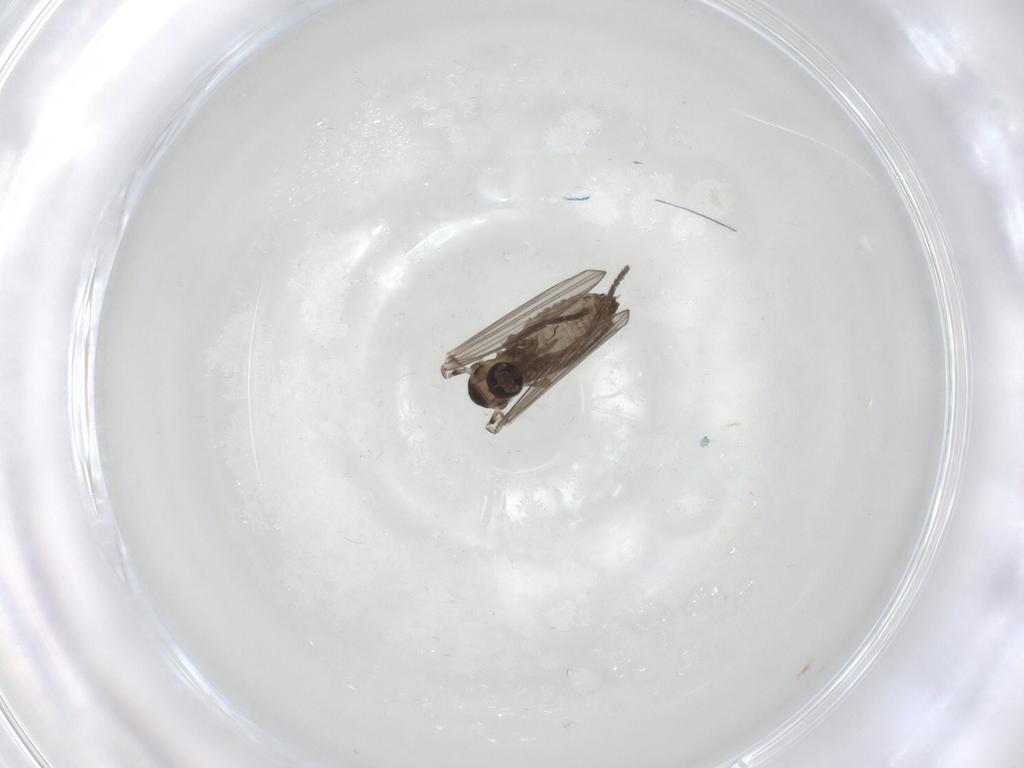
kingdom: Animalia
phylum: Arthropoda
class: Insecta
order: Diptera
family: Psychodidae
